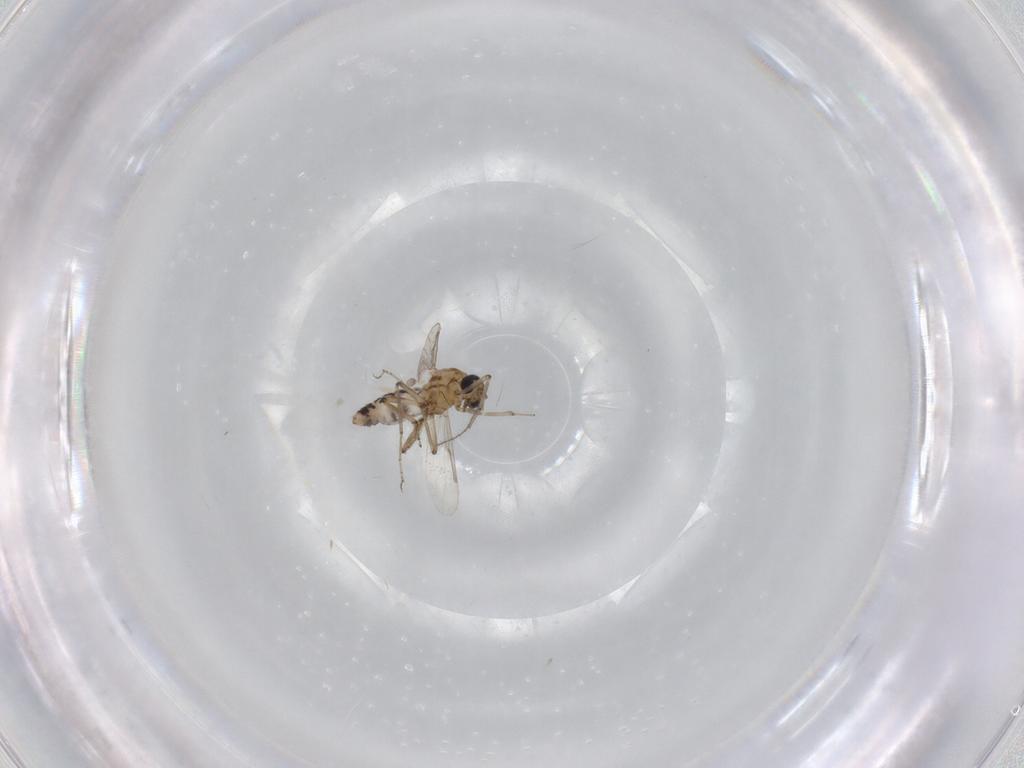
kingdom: Animalia
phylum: Arthropoda
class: Insecta
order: Diptera
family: Ceratopogonidae
